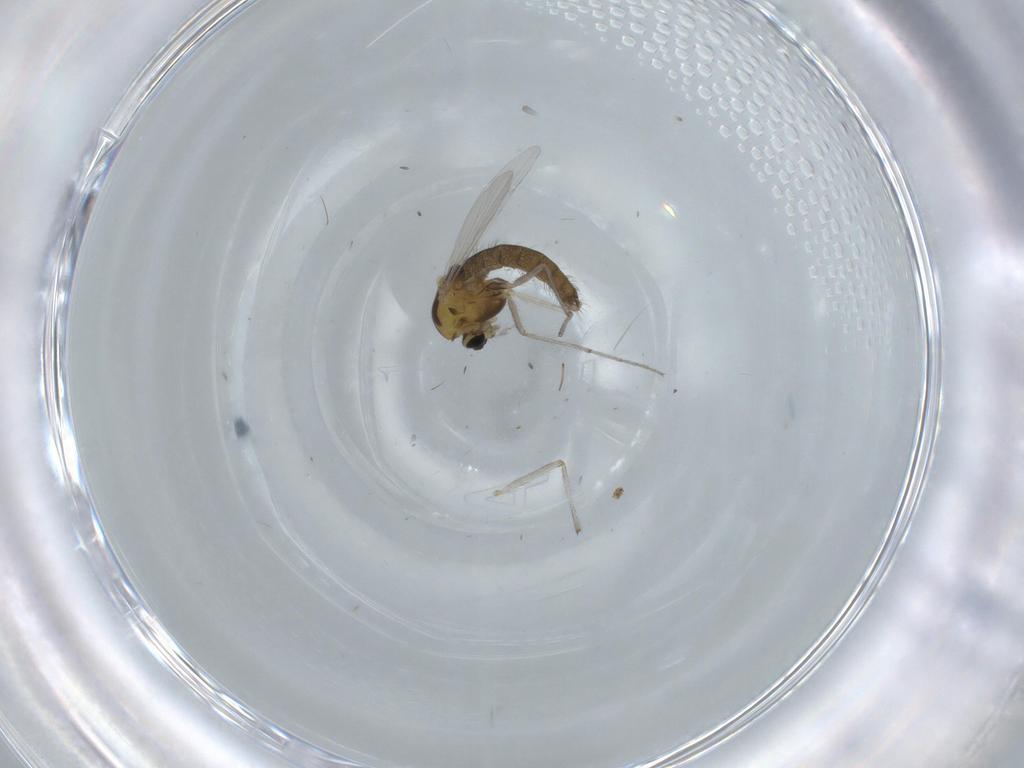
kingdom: Animalia
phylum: Arthropoda
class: Insecta
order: Diptera
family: Chironomidae
